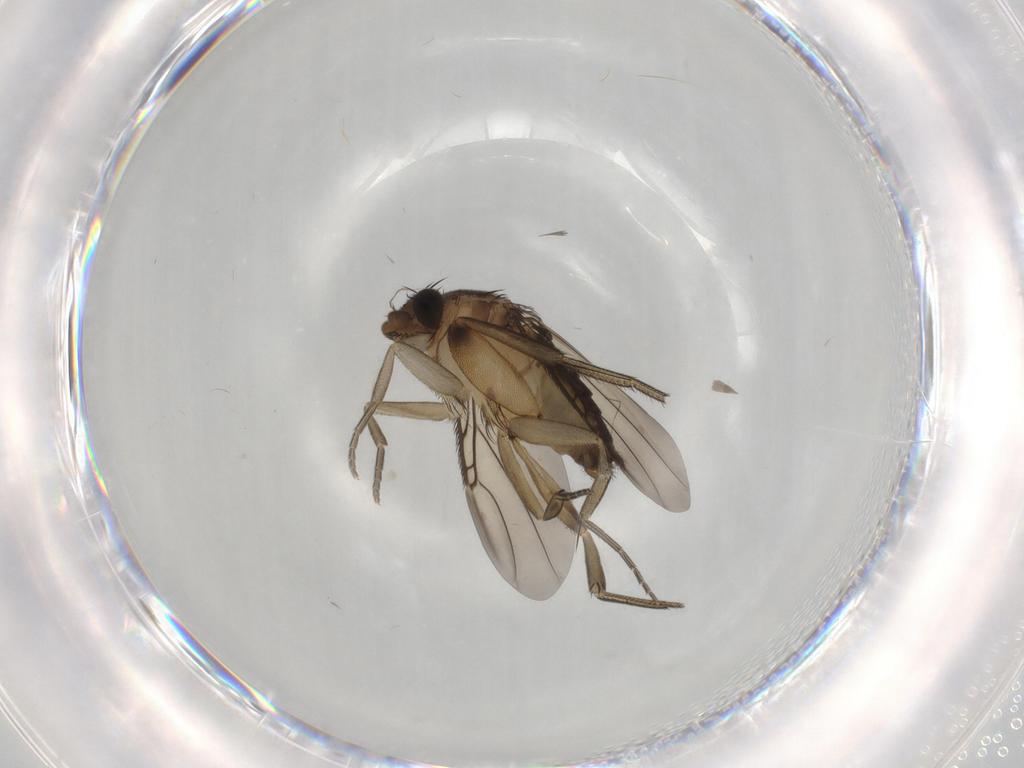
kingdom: Animalia
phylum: Arthropoda
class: Insecta
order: Diptera
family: Phoridae
